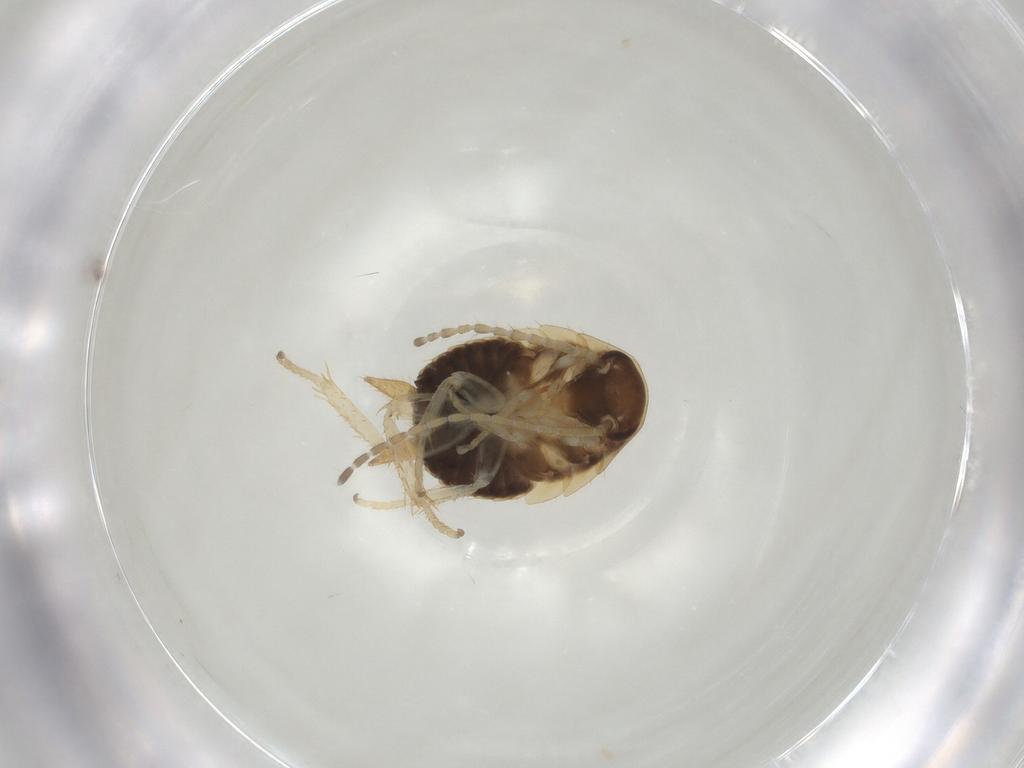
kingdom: Animalia
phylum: Arthropoda
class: Insecta
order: Blattodea
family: Ectobiidae
